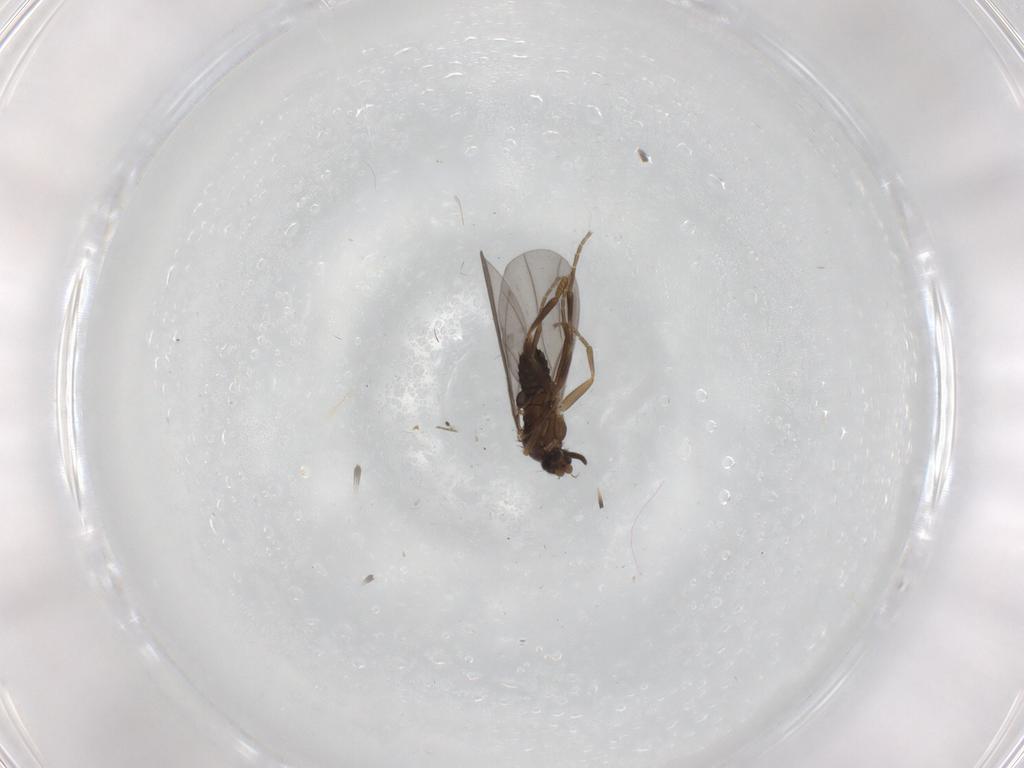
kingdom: Animalia
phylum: Arthropoda
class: Insecta
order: Diptera
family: Limoniidae
